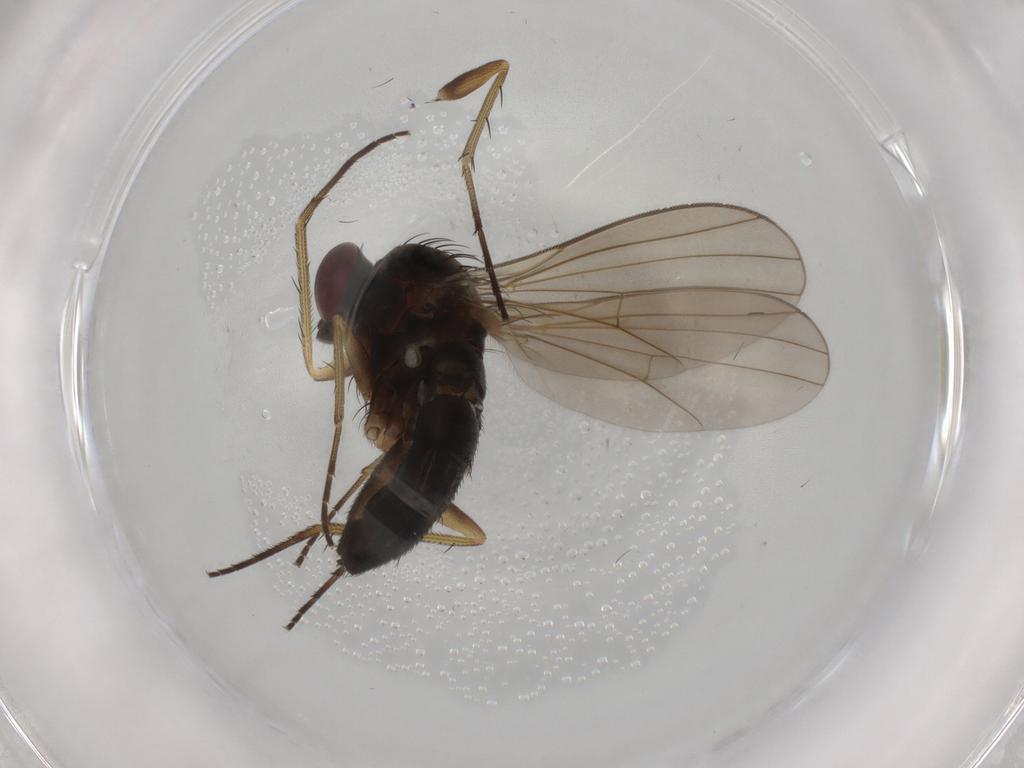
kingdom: Animalia
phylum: Arthropoda
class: Insecta
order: Diptera
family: Dolichopodidae
